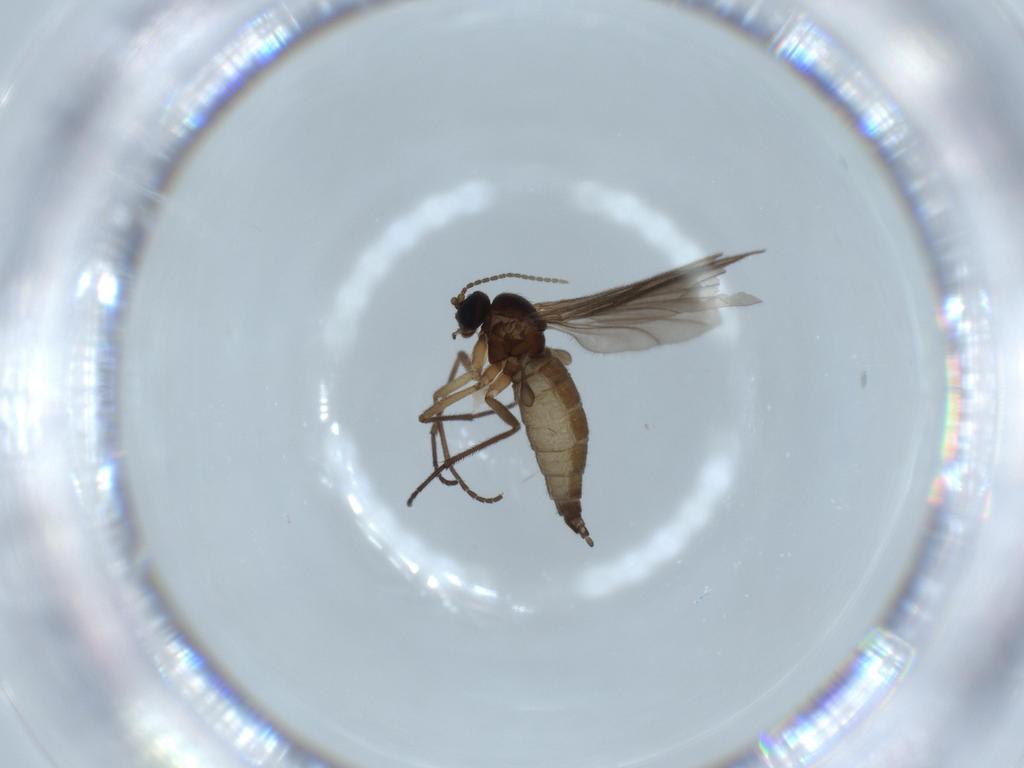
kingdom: Animalia
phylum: Arthropoda
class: Insecta
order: Diptera
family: Sciaridae
